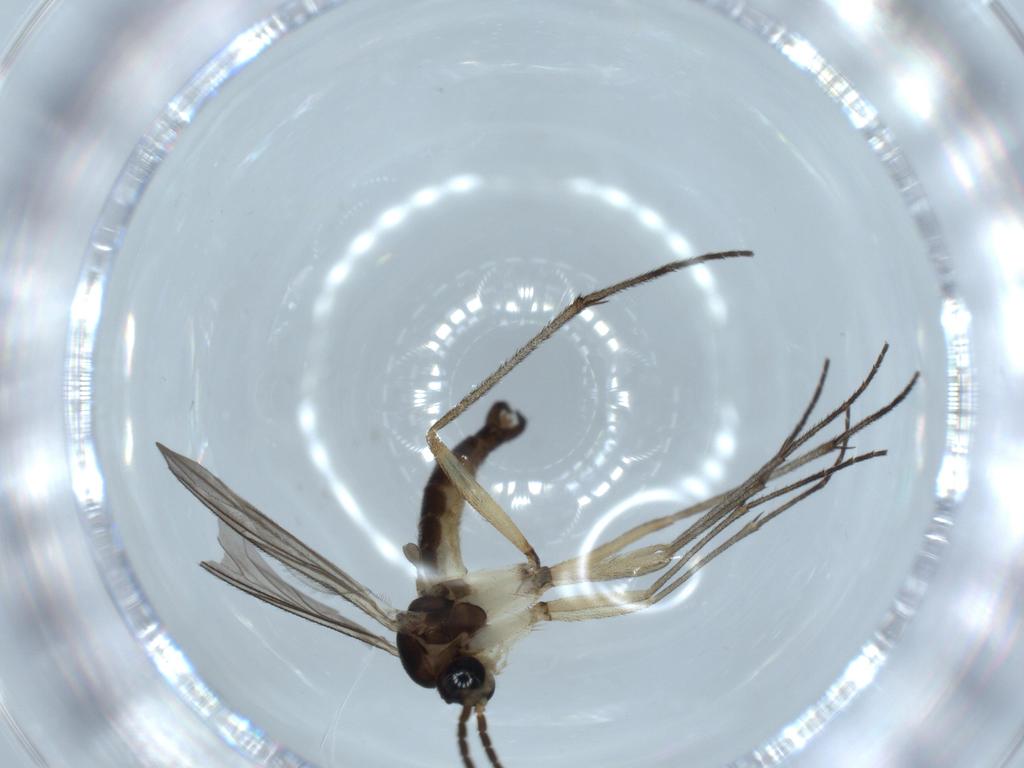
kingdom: Animalia
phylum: Arthropoda
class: Insecta
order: Diptera
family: Sciaridae
